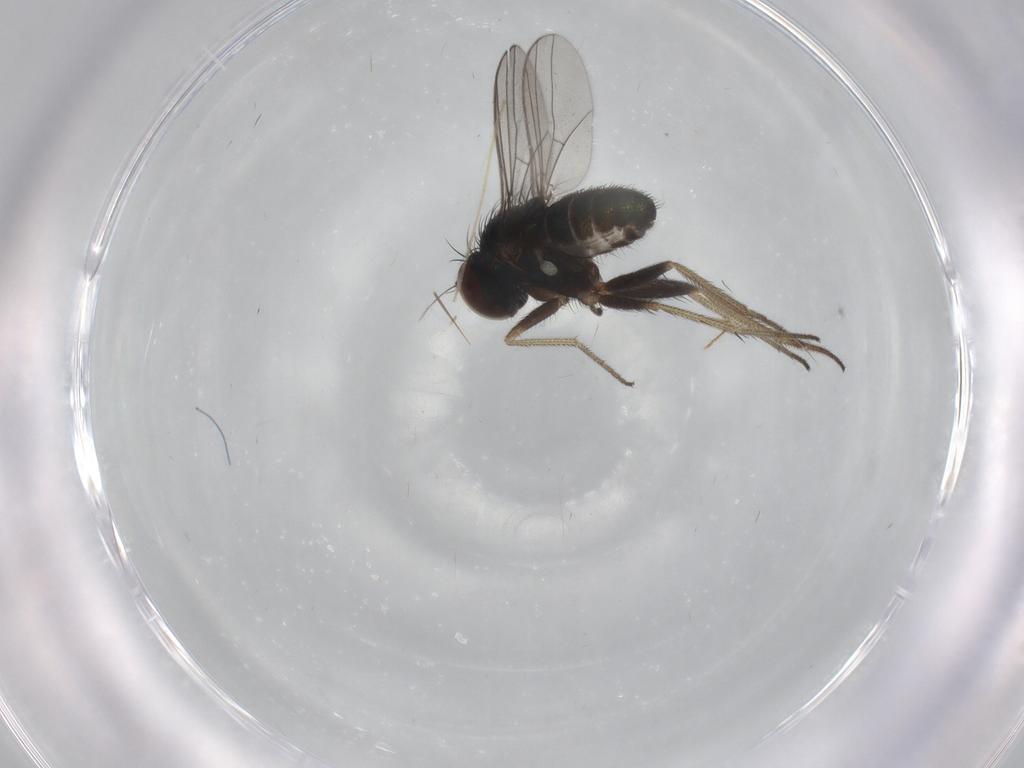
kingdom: Animalia
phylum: Arthropoda
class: Insecta
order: Diptera
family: Chironomidae
